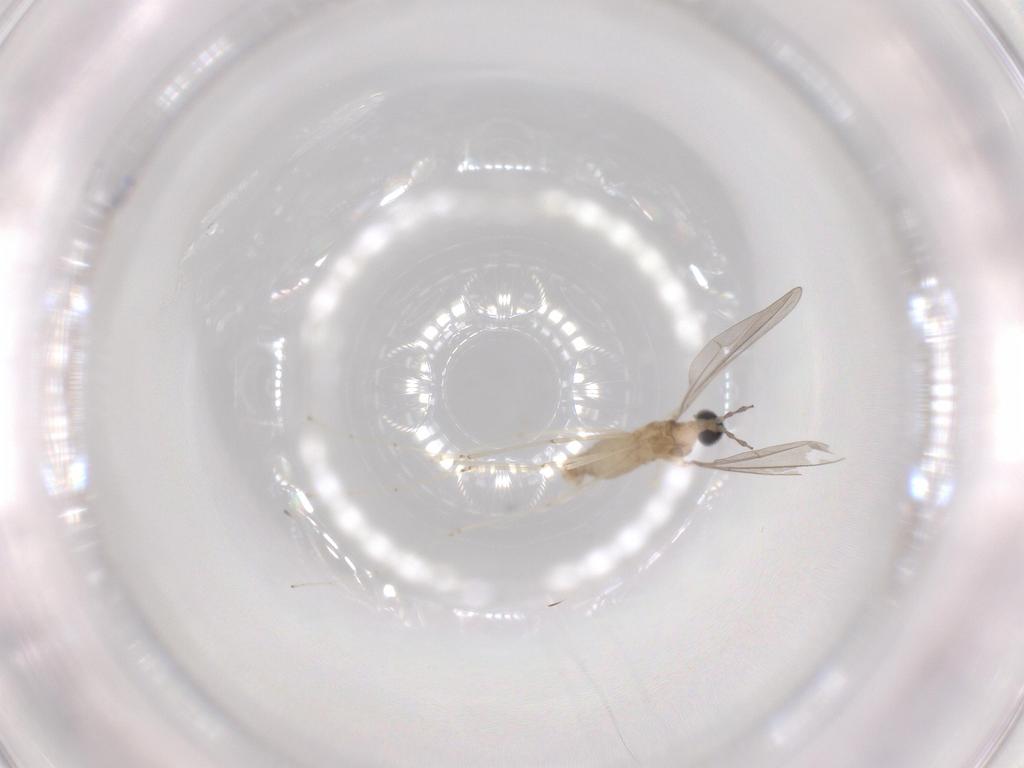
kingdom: Animalia
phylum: Arthropoda
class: Insecta
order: Diptera
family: Cecidomyiidae
